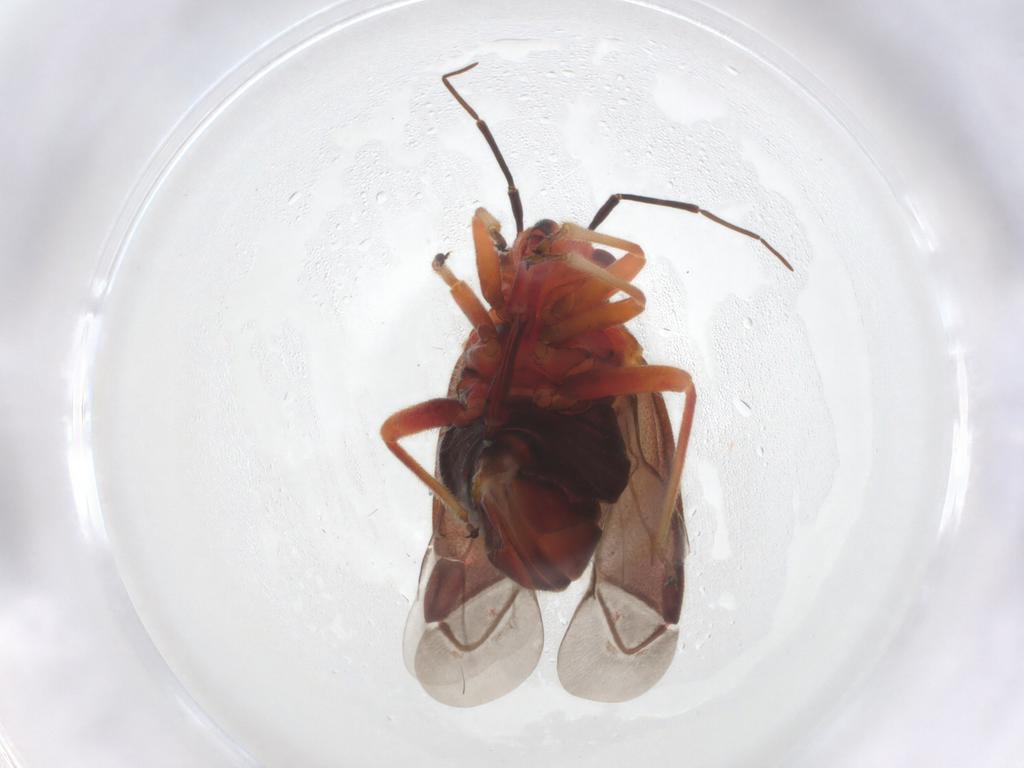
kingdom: Animalia
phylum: Arthropoda
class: Insecta
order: Hemiptera
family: Miridae
